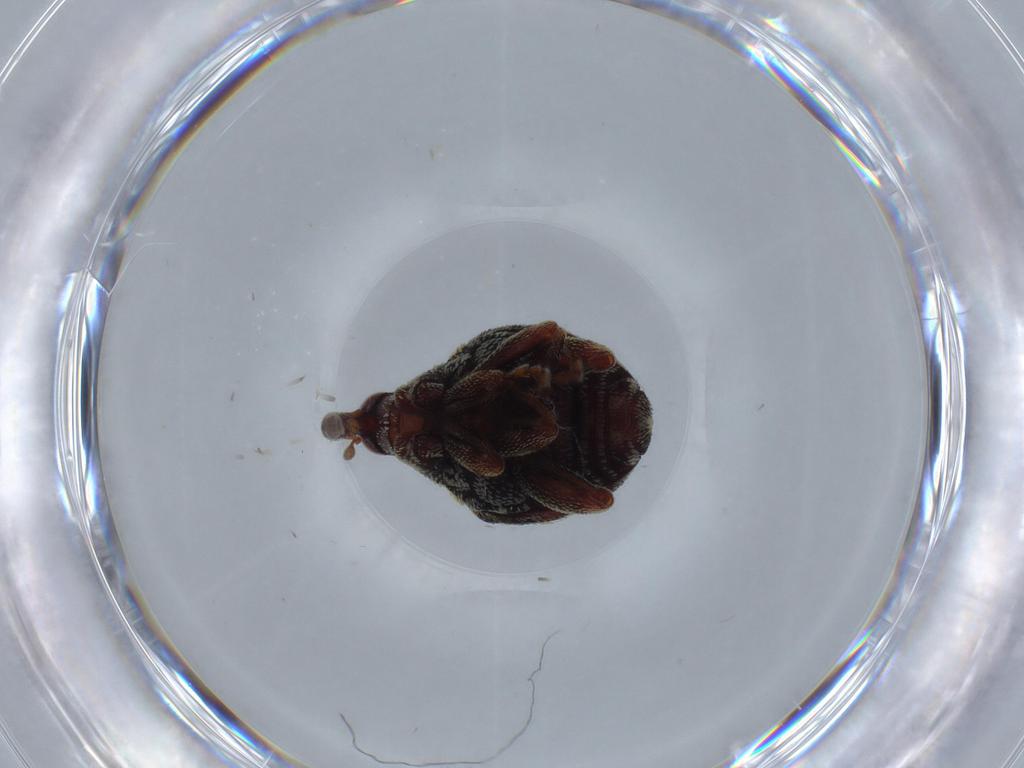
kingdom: Animalia
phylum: Arthropoda
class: Insecta
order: Coleoptera
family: Curculionidae
